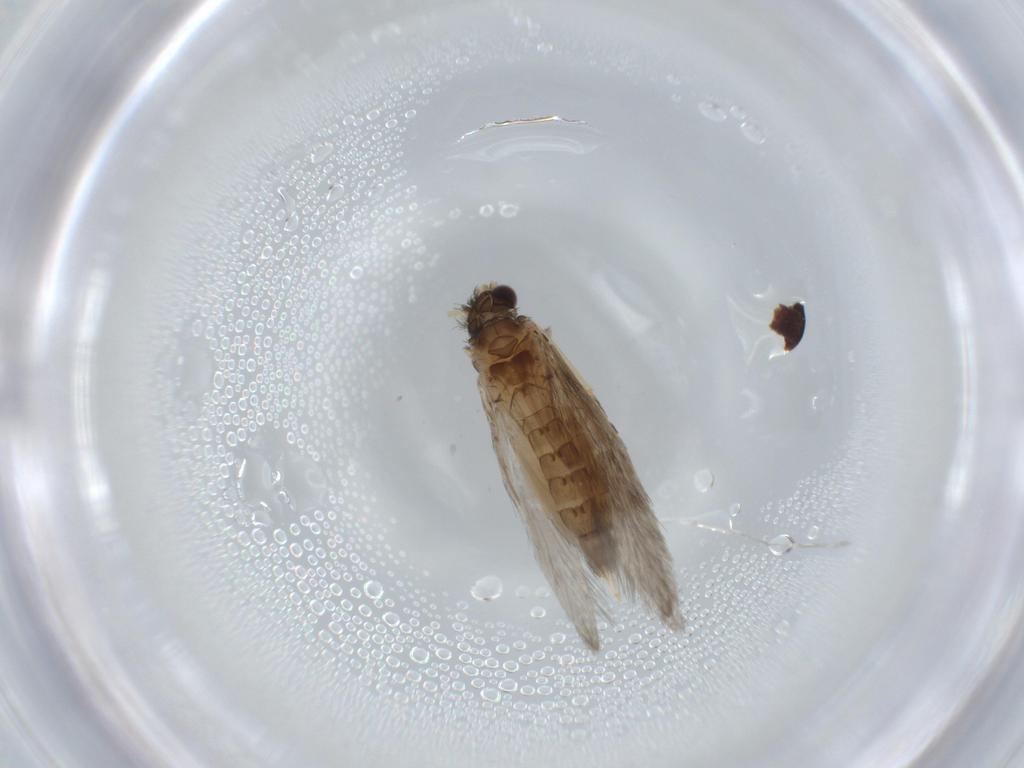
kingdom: Animalia
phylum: Arthropoda
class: Insecta
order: Trichoptera
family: Hydroptilidae
